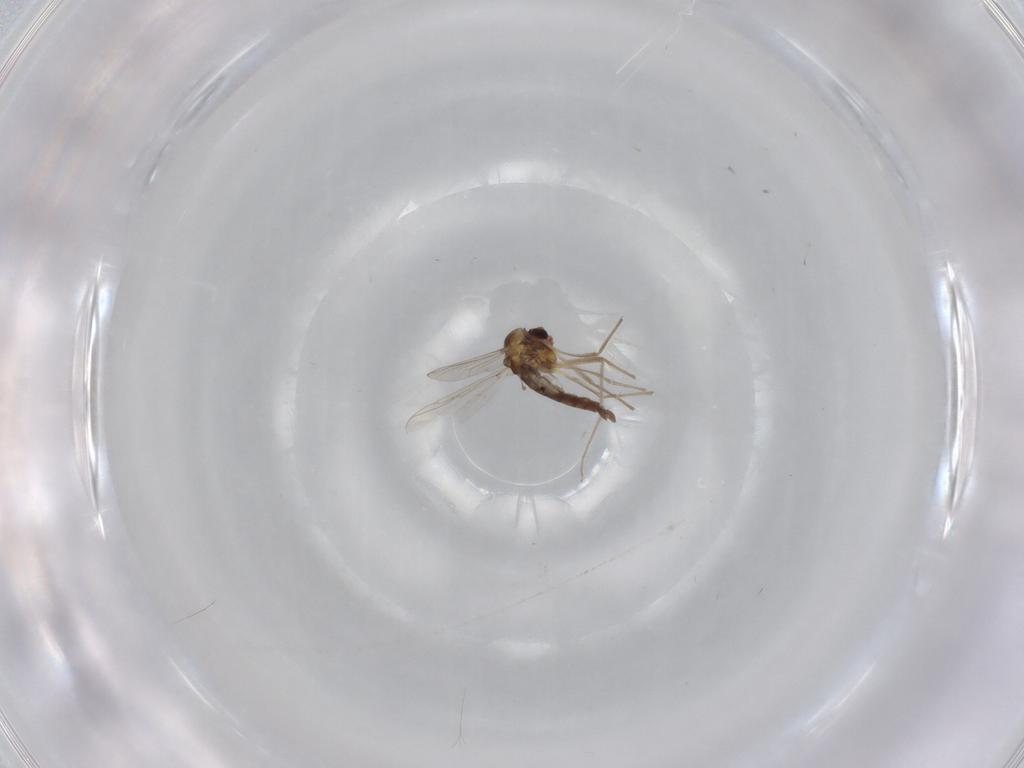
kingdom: Animalia
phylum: Arthropoda
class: Insecta
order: Diptera
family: Chironomidae
